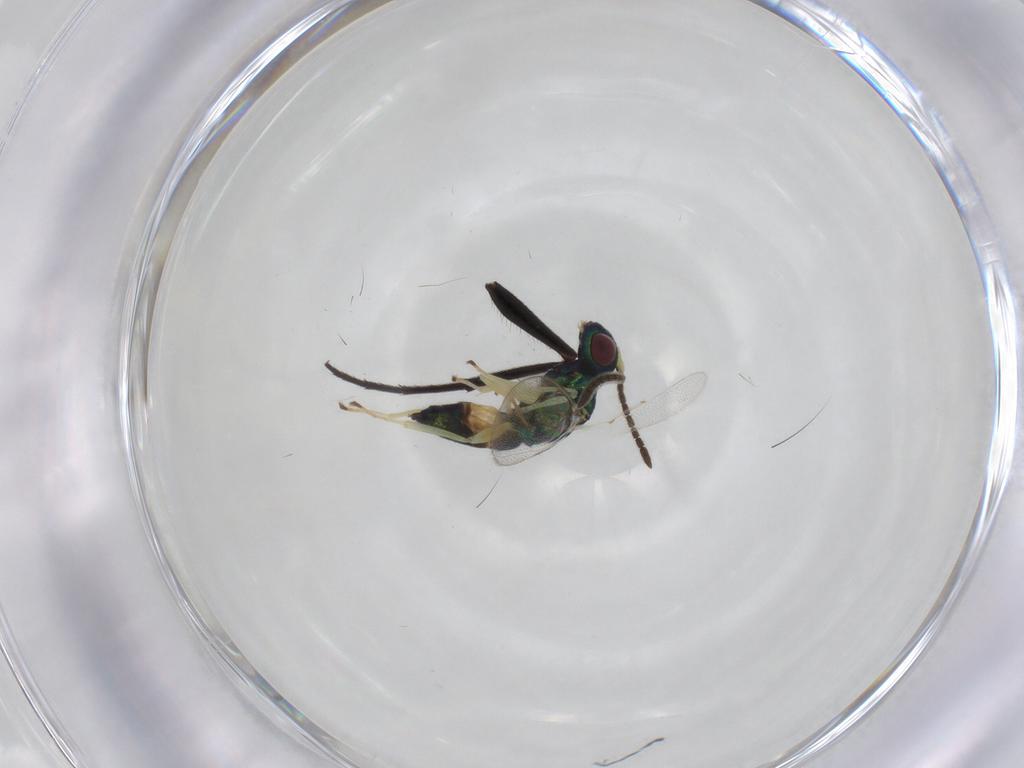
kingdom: Animalia
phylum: Arthropoda
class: Insecta
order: Hymenoptera
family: Pteromalidae
